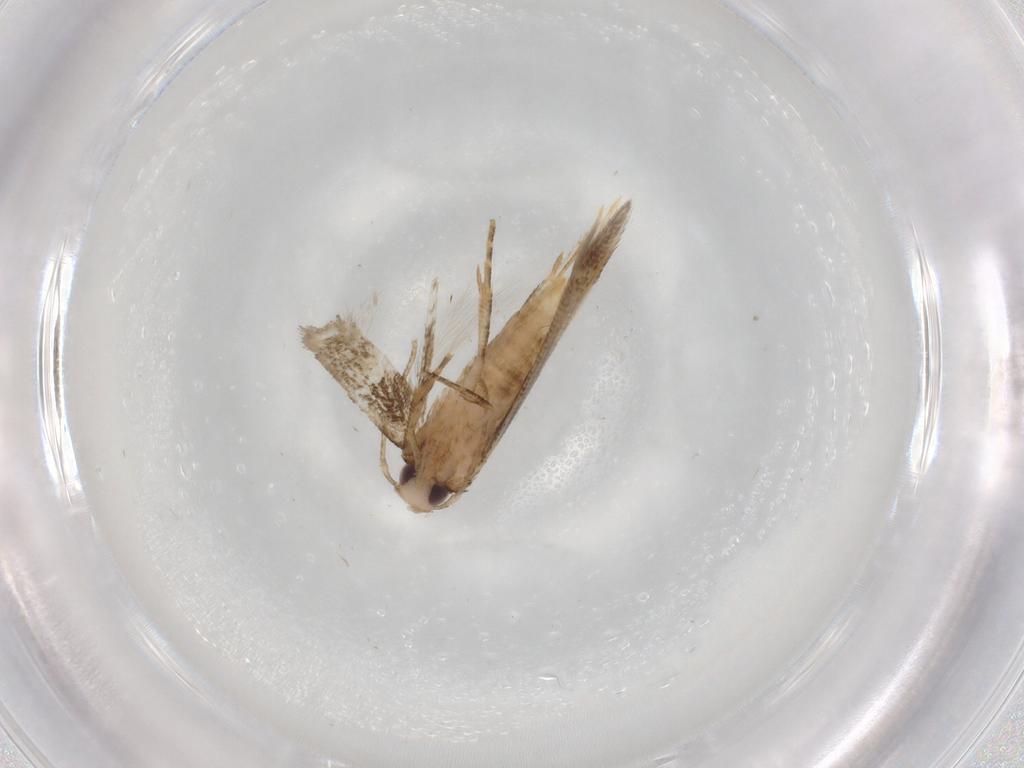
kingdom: Animalia
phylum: Arthropoda
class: Insecta
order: Lepidoptera
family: Cosmopterigidae
